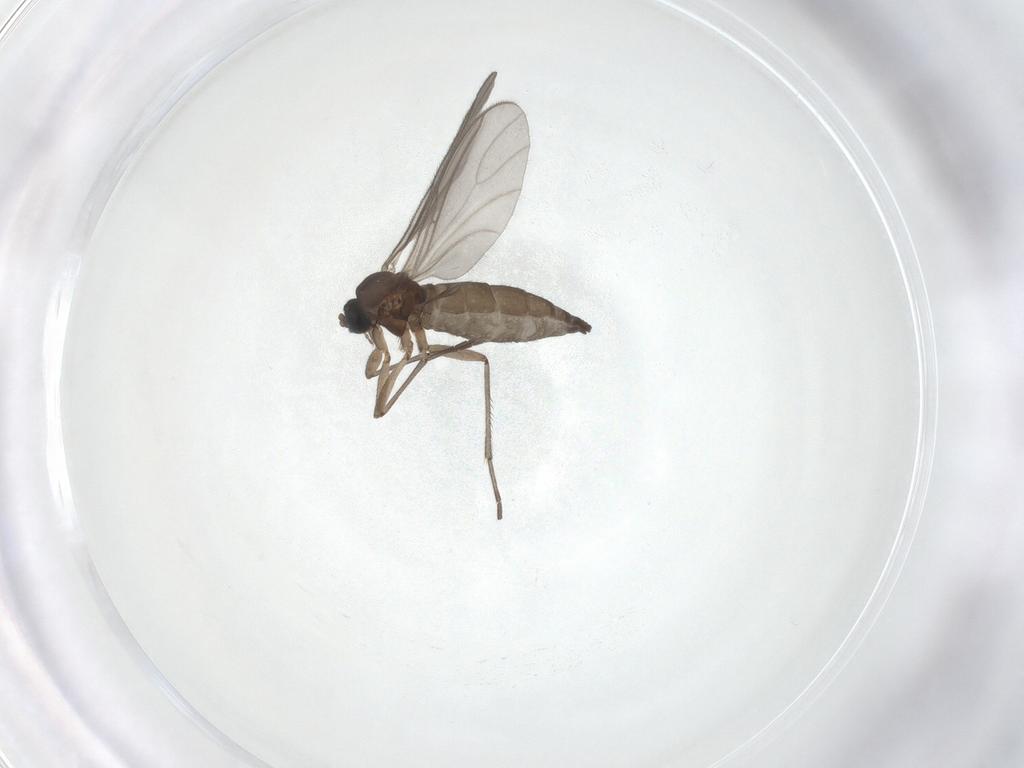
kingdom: Animalia
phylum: Arthropoda
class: Insecta
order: Diptera
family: Sciaridae
